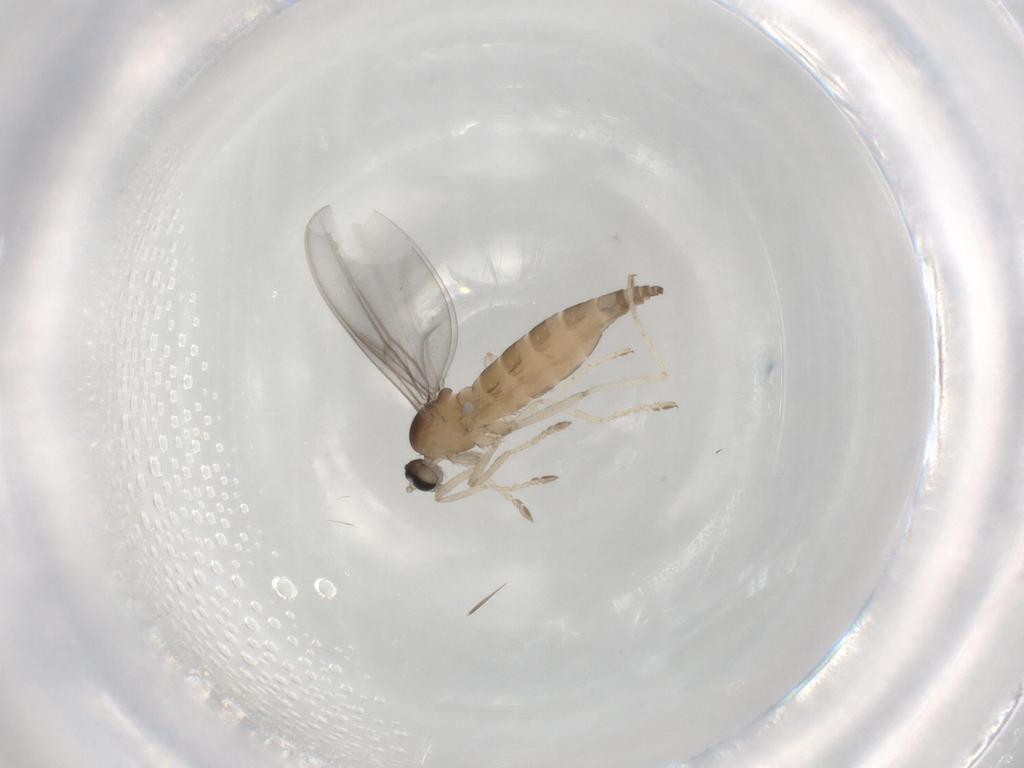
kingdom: Animalia
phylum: Arthropoda
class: Insecta
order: Diptera
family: Cecidomyiidae
